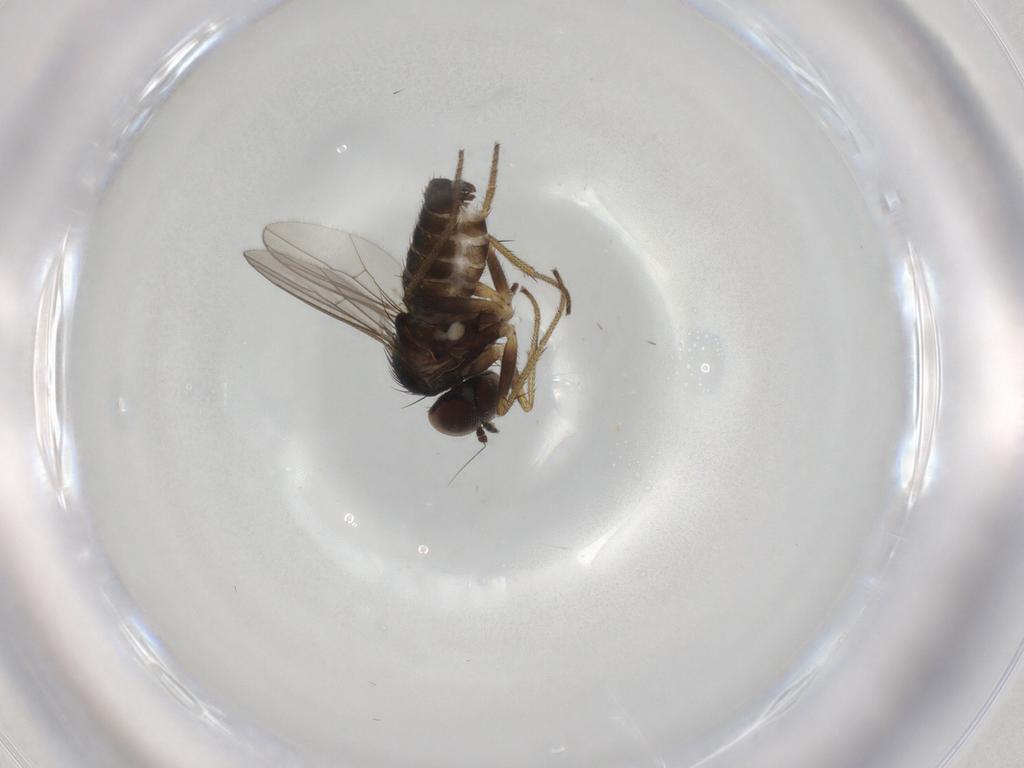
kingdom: Animalia
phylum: Arthropoda
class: Insecta
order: Diptera
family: Dolichopodidae
